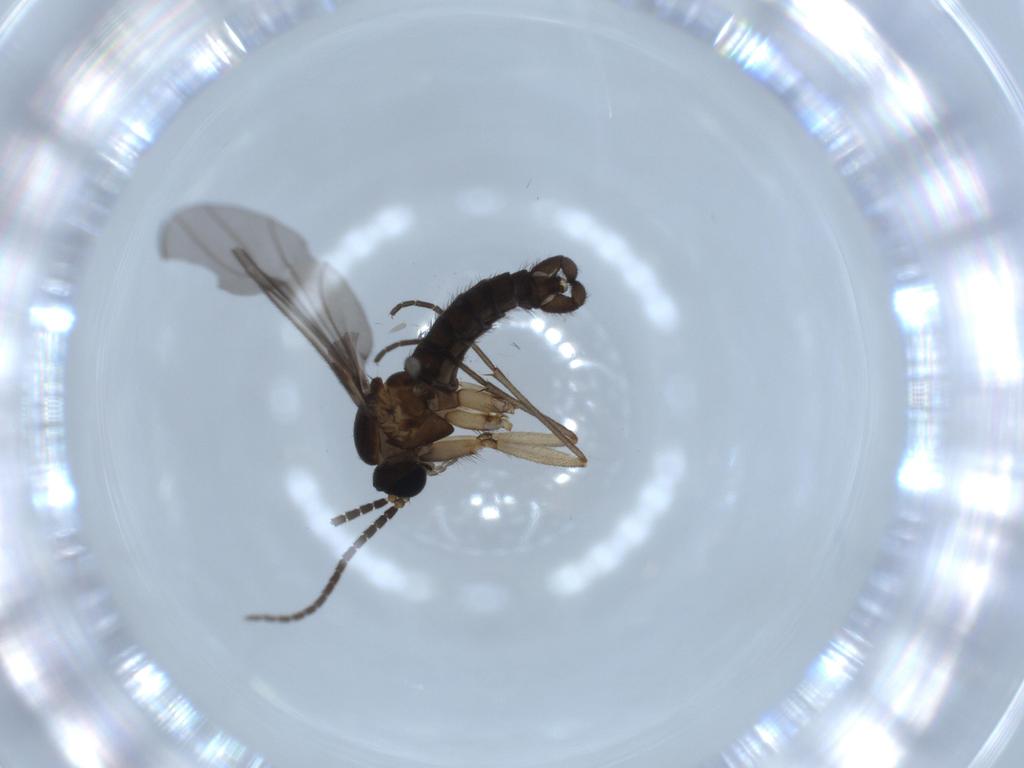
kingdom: Animalia
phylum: Arthropoda
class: Insecta
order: Diptera
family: Sciaridae
